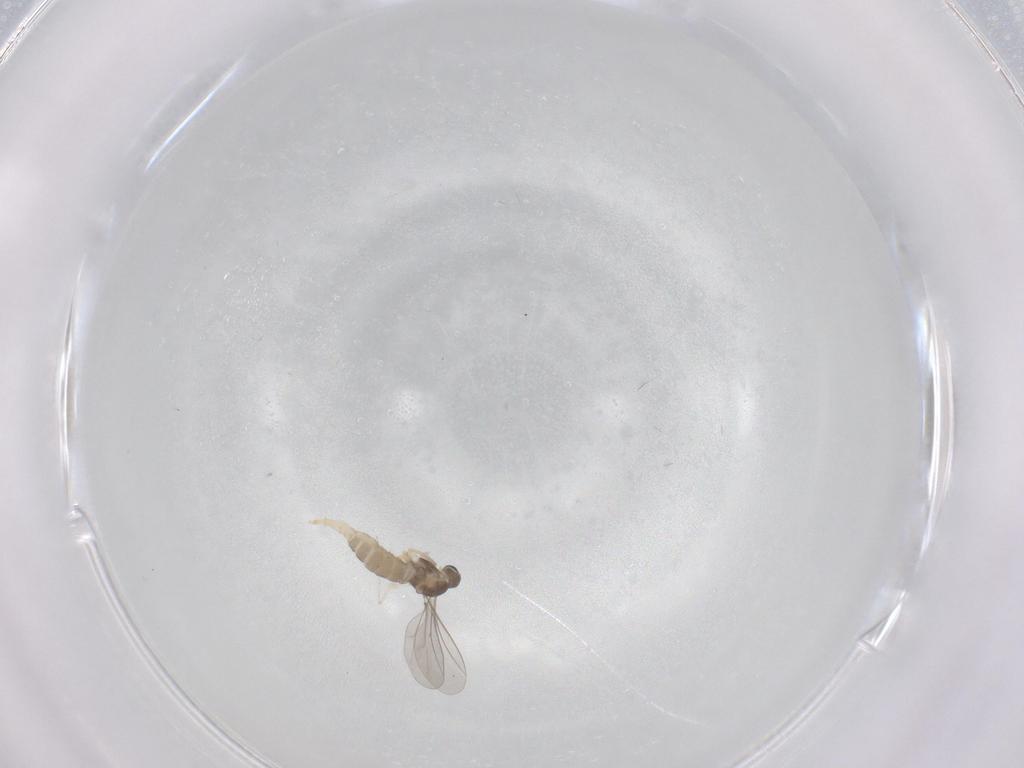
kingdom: Animalia
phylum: Arthropoda
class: Insecta
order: Diptera
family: Cecidomyiidae
